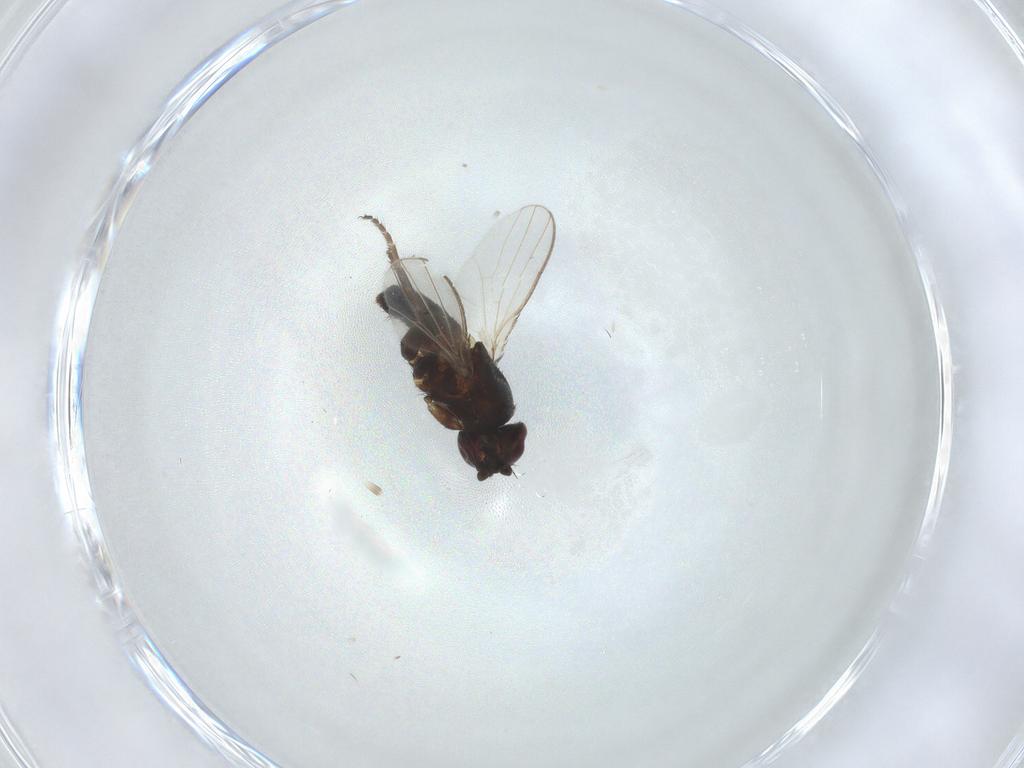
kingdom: Animalia
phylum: Arthropoda
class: Insecta
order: Diptera
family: Milichiidae
